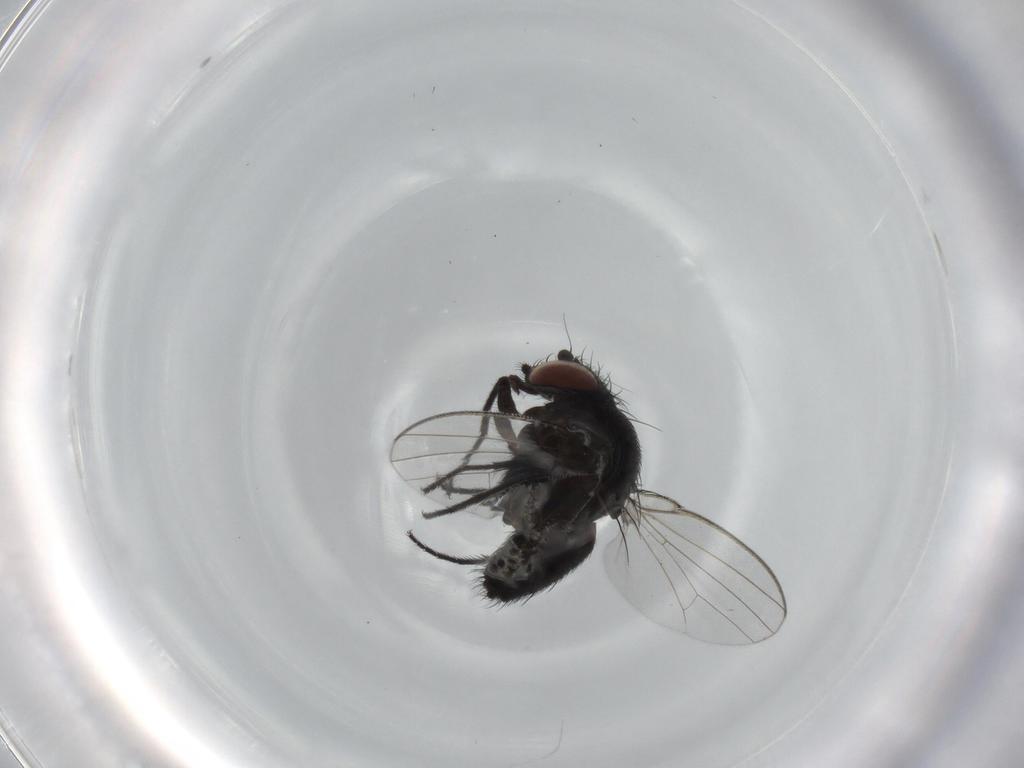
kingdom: Animalia
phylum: Arthropoda
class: Insecta
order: Diptera
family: Milichiidae
